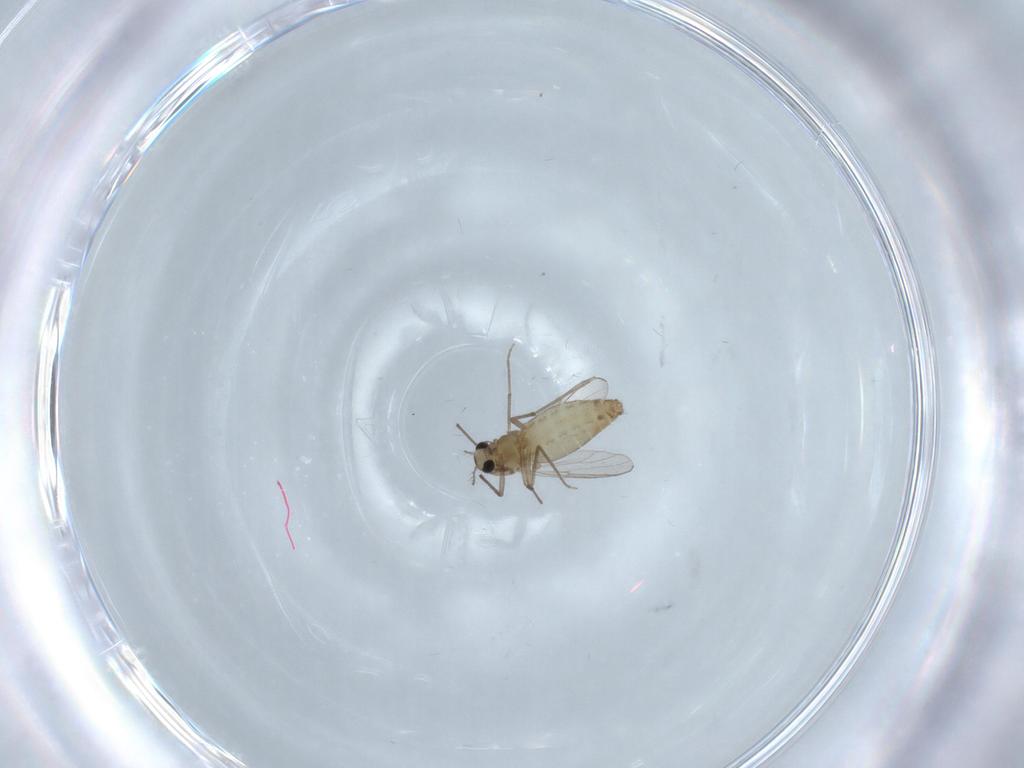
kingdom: Animalia
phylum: Arthropoda
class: Insecta
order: Diptera
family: Chironomidae
